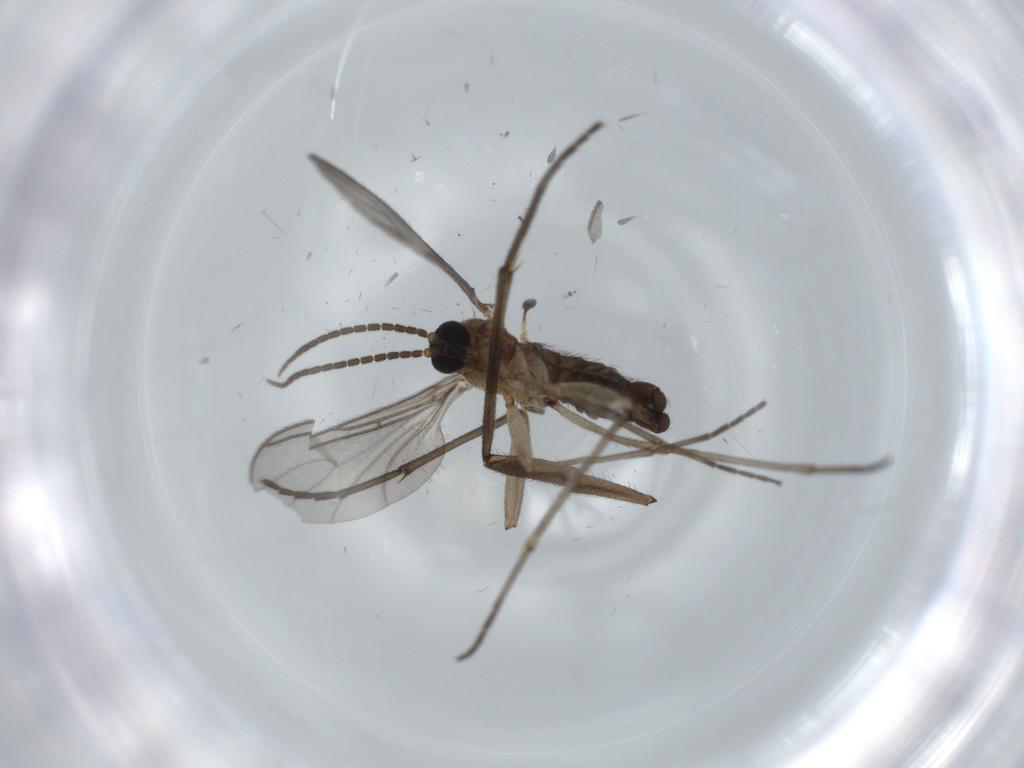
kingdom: Animalia
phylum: Arthropoda
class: Insecta
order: Diptera
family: Sciaridae
